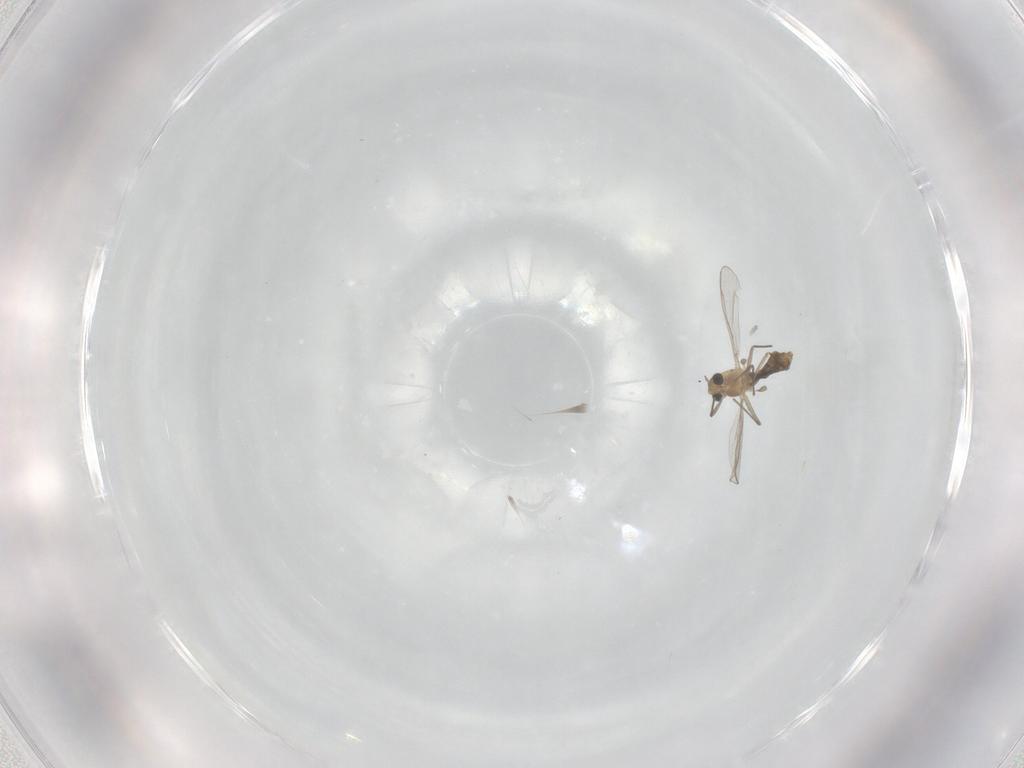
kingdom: Animalia
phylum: Arthropoda
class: Insecta
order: Diptera
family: Chironomidae
